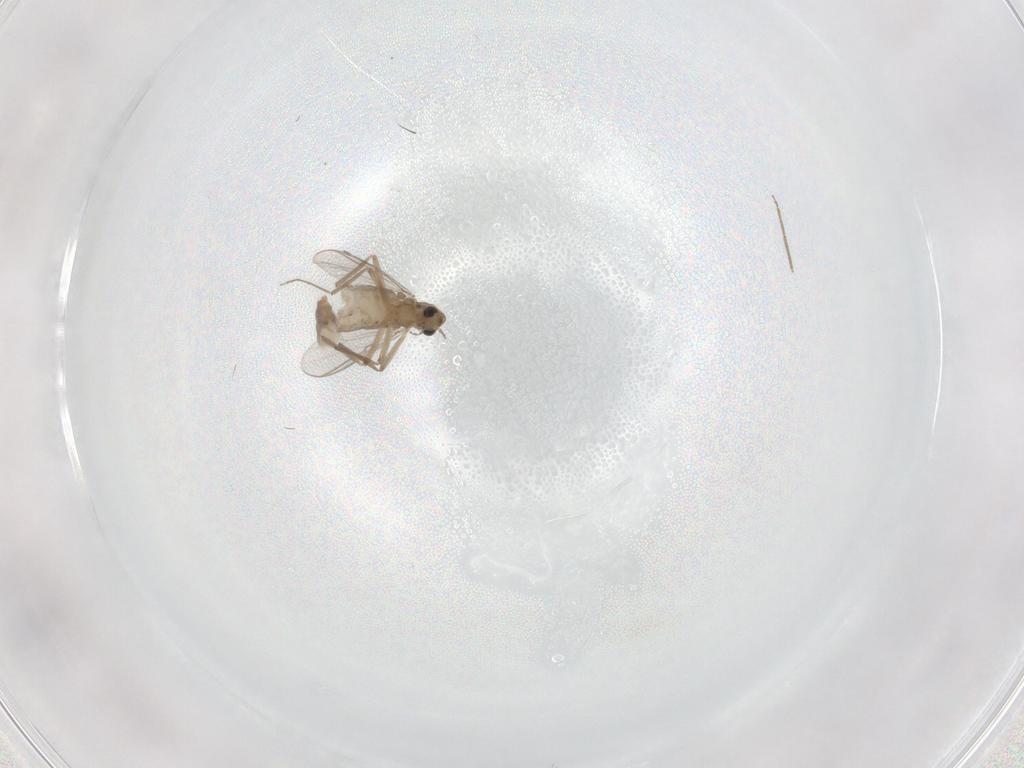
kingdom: Animalia
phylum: Arthropoda
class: Insecta
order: Diptera
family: Chironomidae
